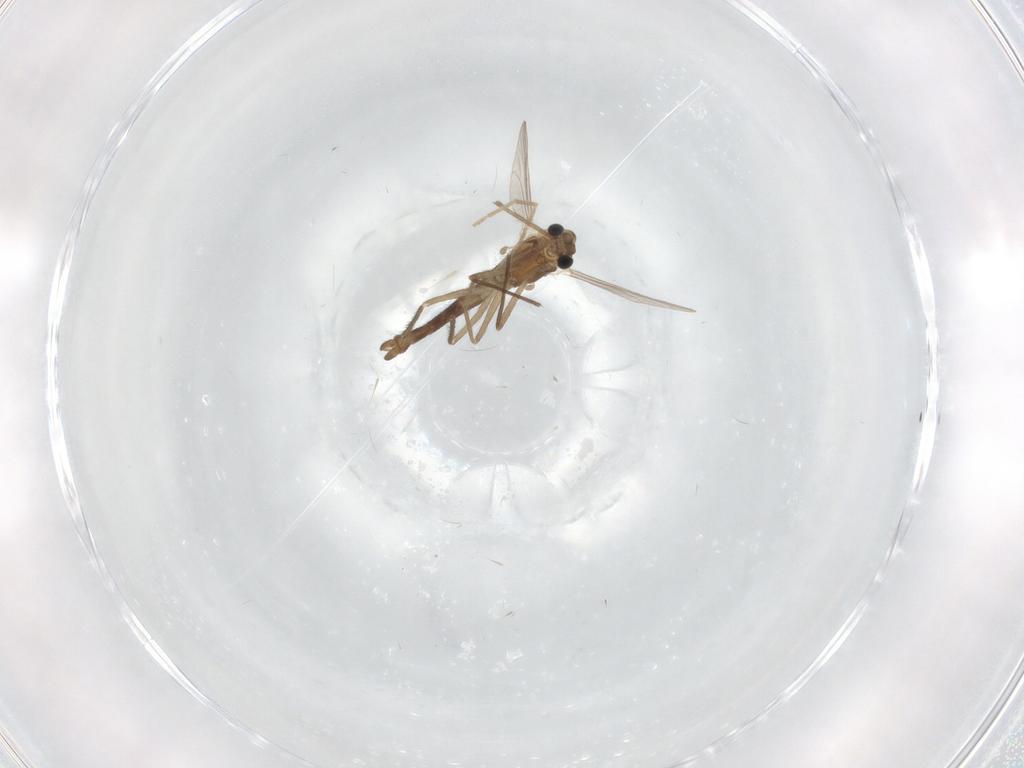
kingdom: Animalia
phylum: Arthropoda
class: Insecta
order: Diptera
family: Chironomidae
